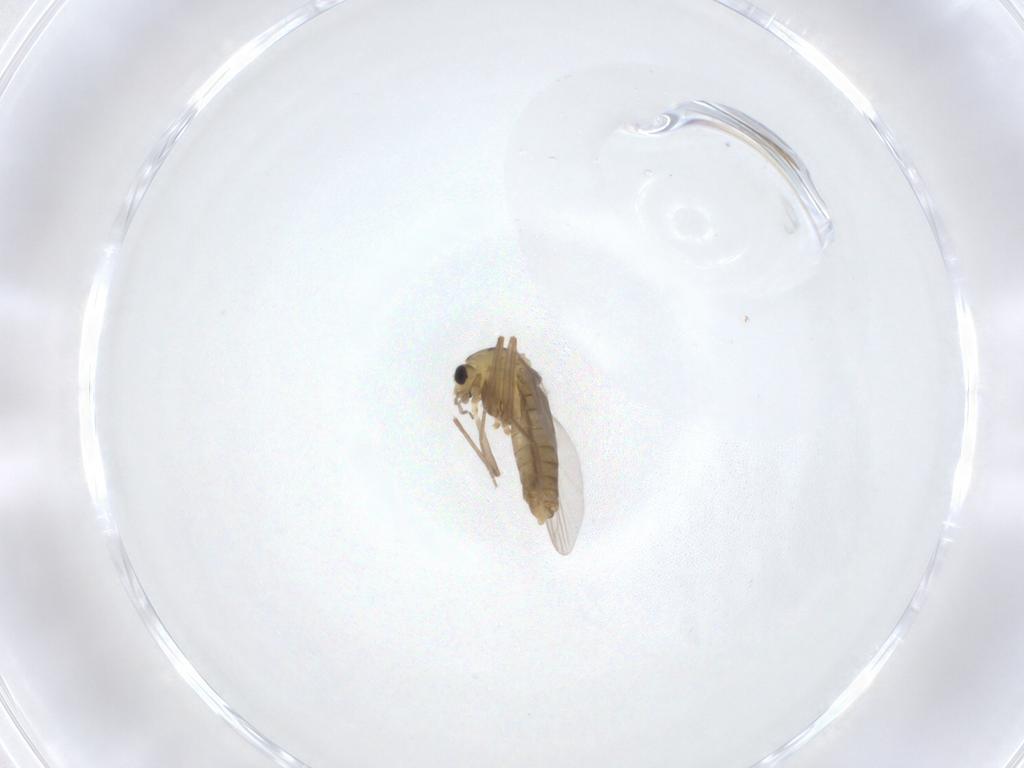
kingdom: Animalia
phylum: Arthropoda
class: Insecta
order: Diptera
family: Chironomidae
